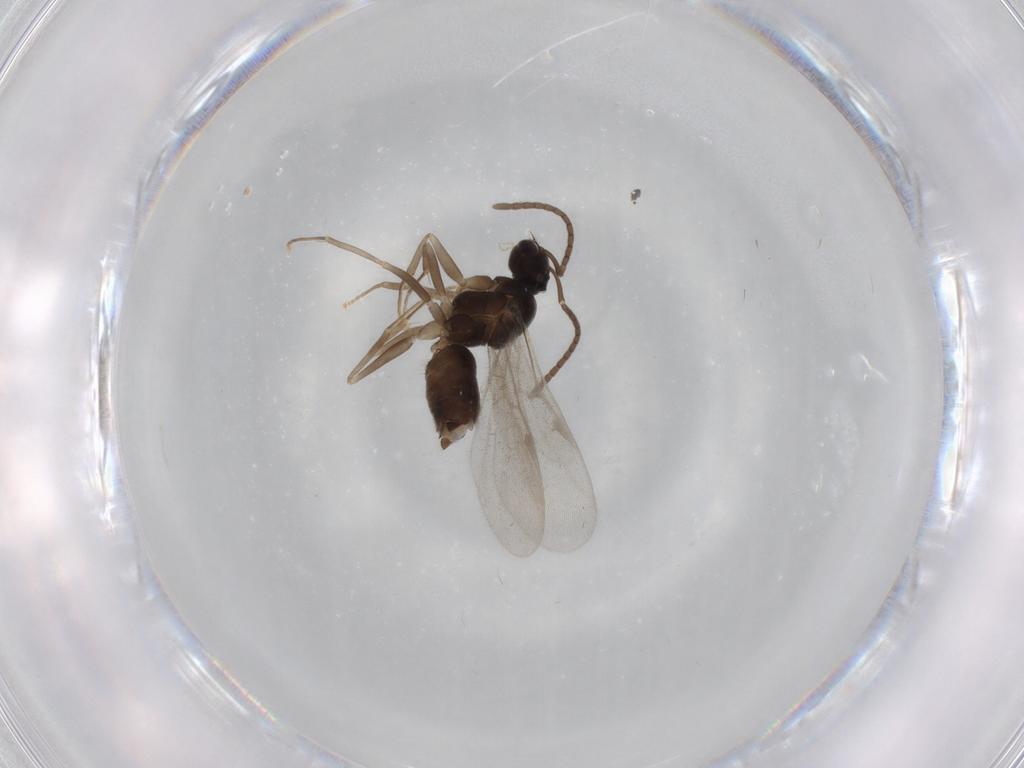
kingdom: Animalia
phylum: Arthropoda
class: Insecta
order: Hymenoptera
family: Formicidae
